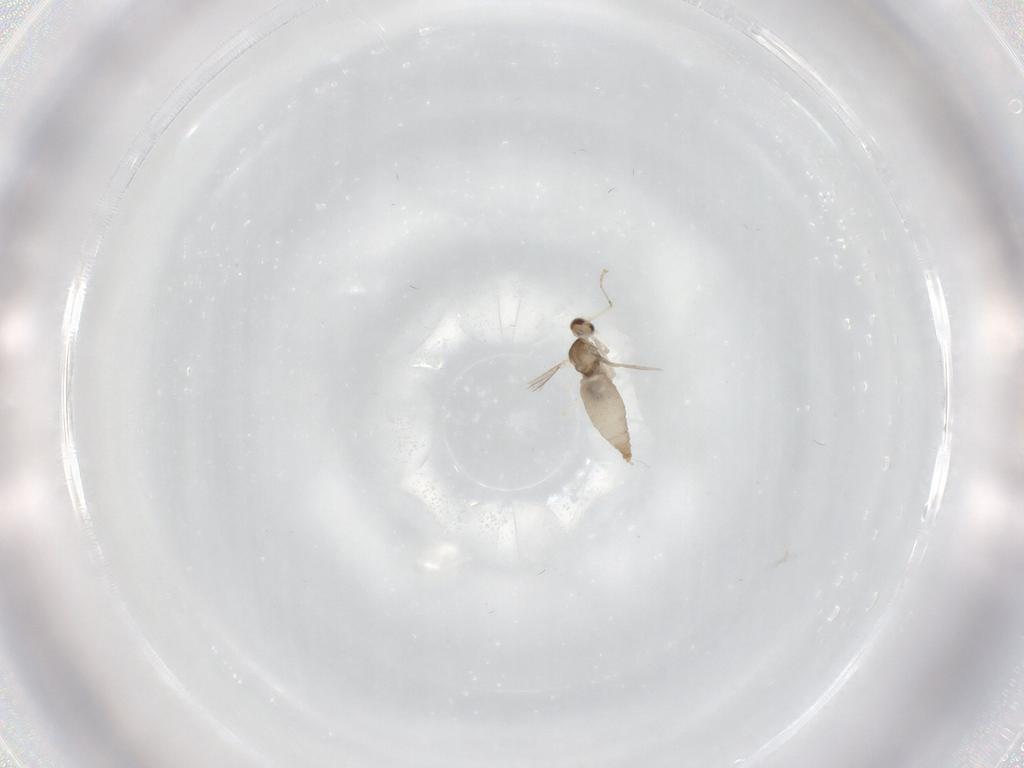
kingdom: Animalia
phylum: Arthropoda
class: Insecta
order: Diptera
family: Cecidomyiidae
